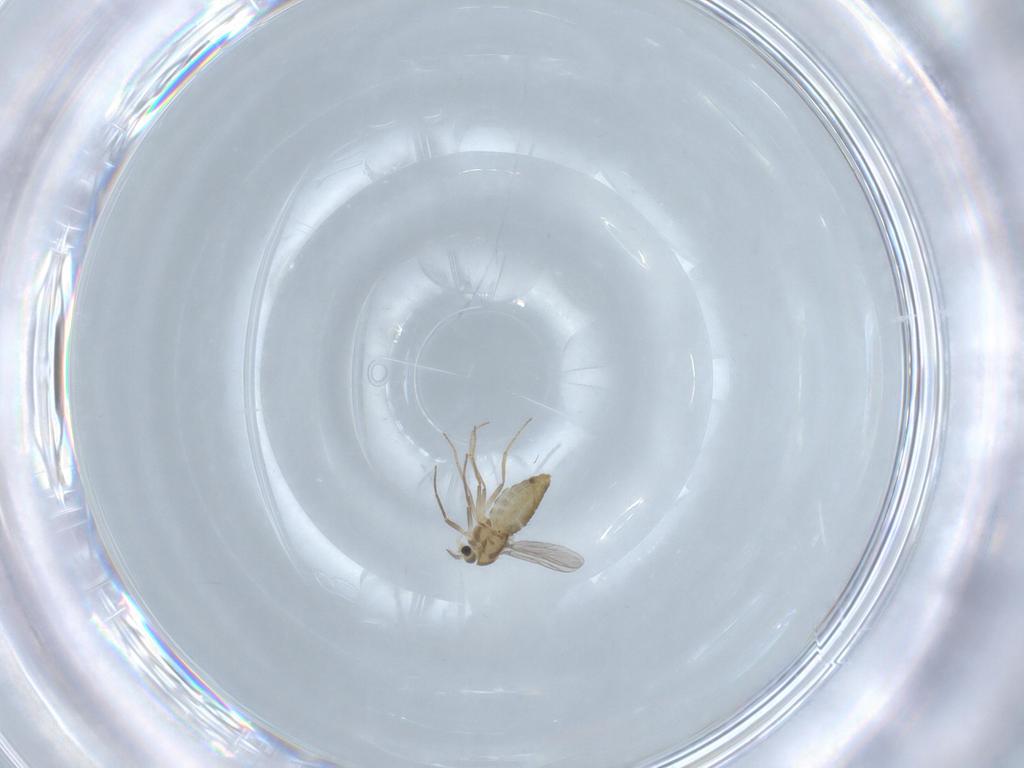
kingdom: Animalia
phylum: Arthropoda
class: Insecta
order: Diptera
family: Chironomidae
